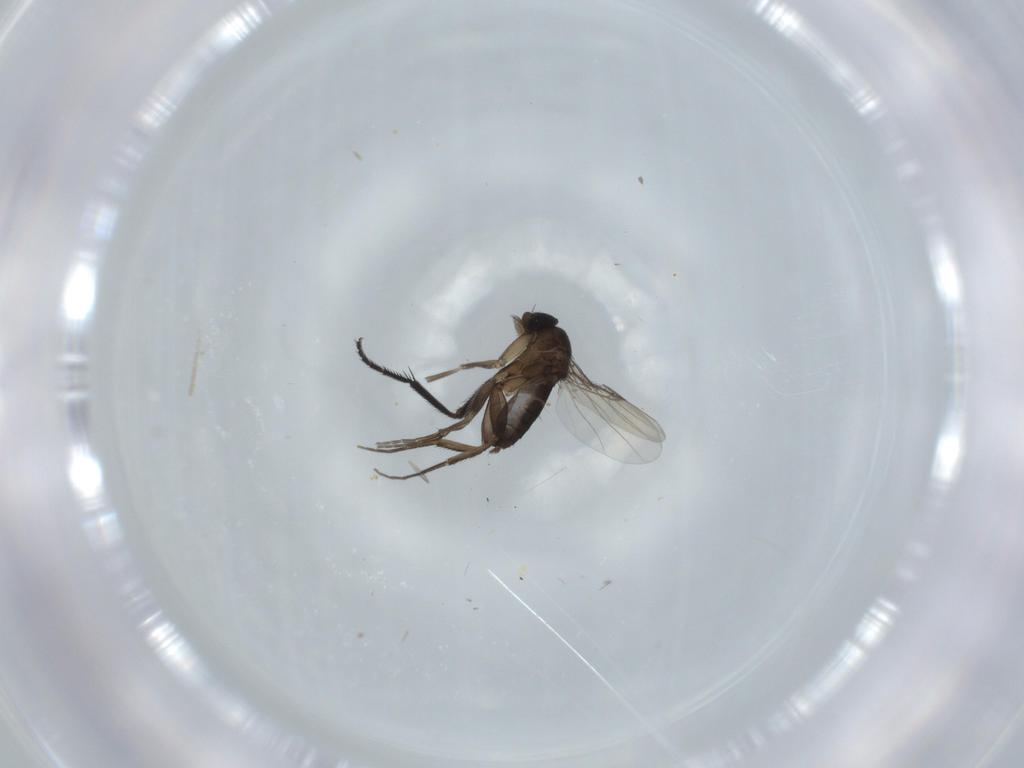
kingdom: Animalia
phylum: Arthropoda
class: Insecta
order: Diptera
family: Phoridae
